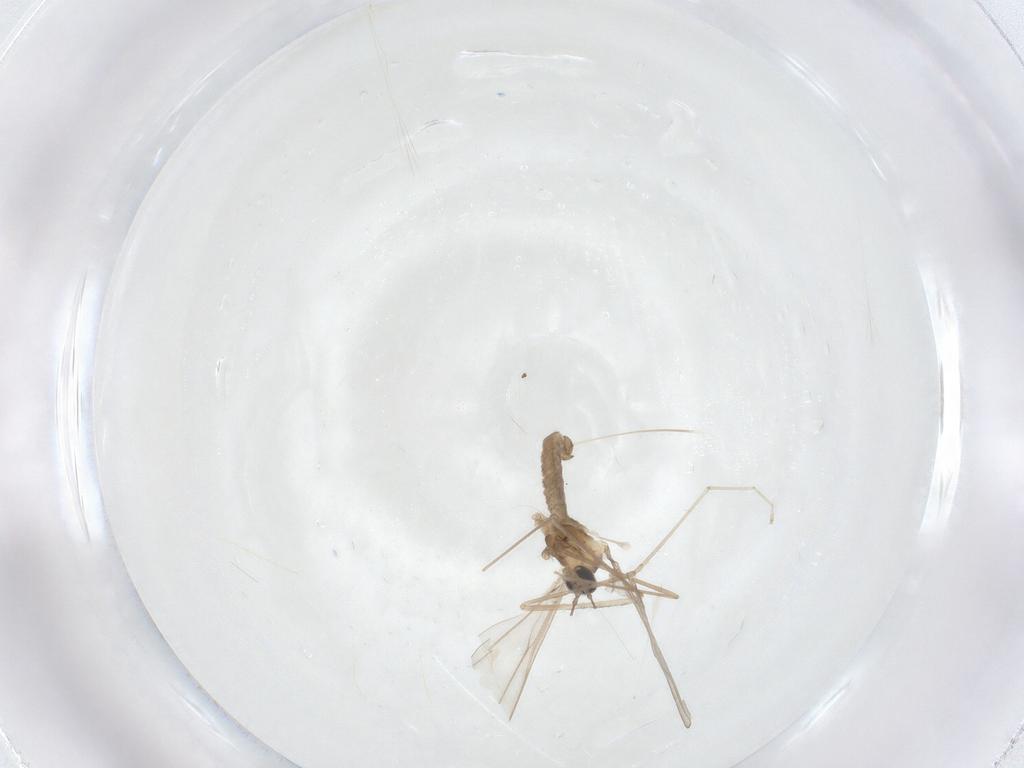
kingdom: Animalia
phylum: Arthropoda
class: Insecta
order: Diptera
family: Cecidomyiidae
